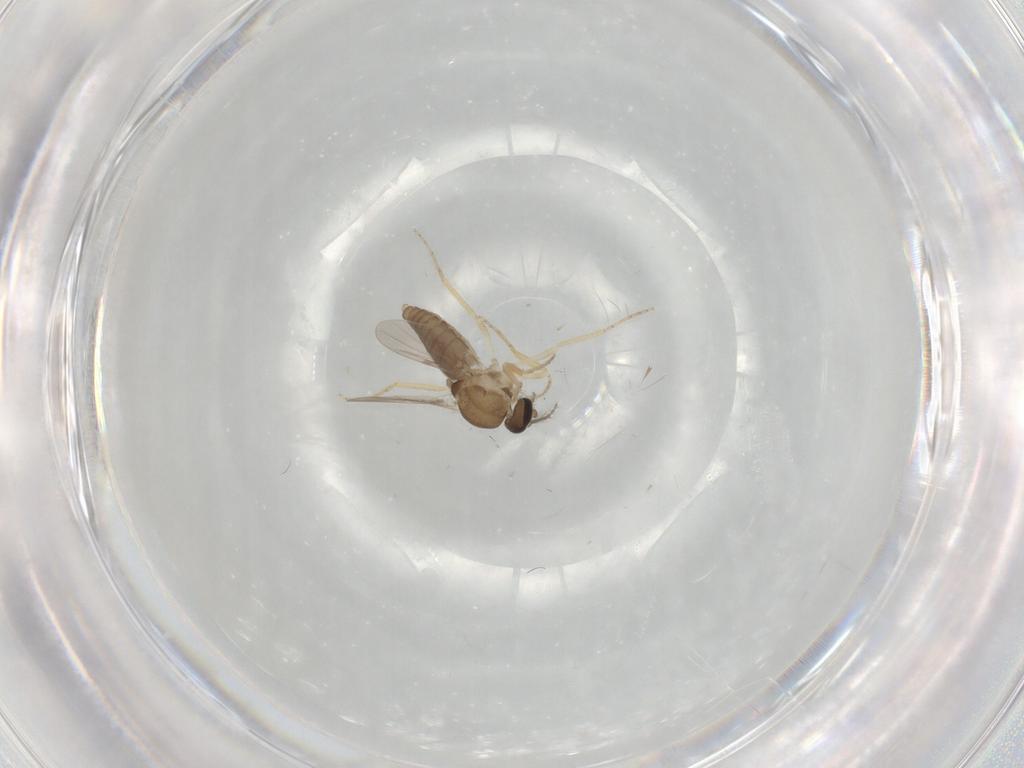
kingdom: Animalia
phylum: Arthropoda
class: Insecta
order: Diptera
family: Ceratopogonidae
